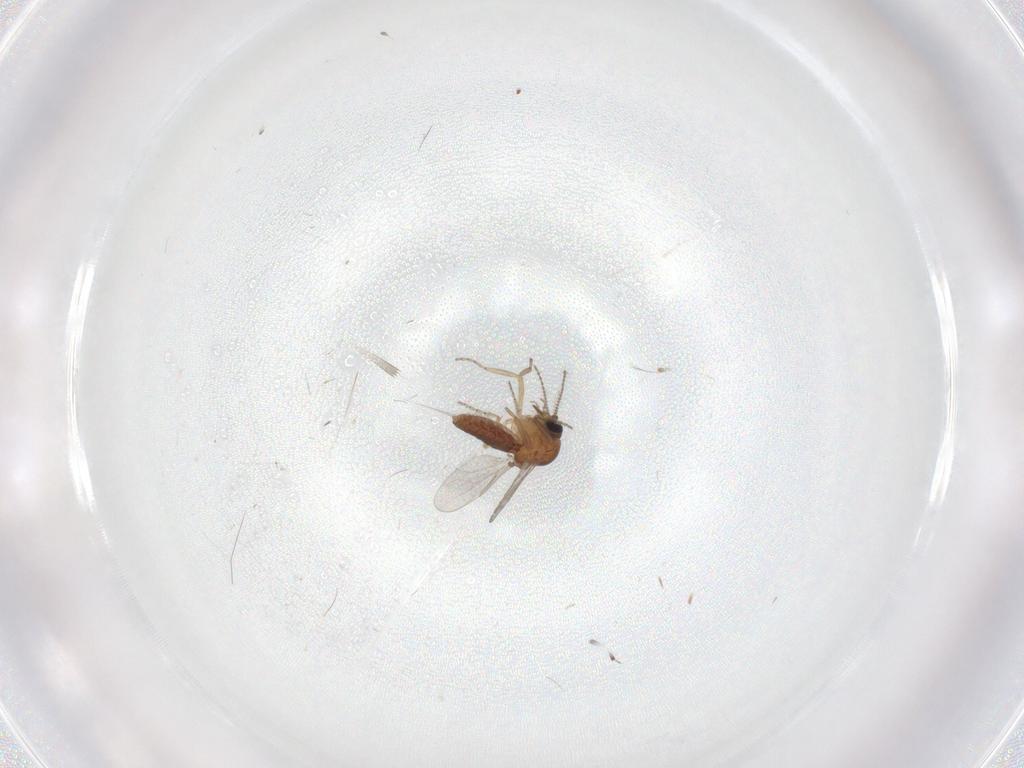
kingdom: Animalia
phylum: Arthropoda
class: Insecta
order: Diptera
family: Ceratopogonidae
